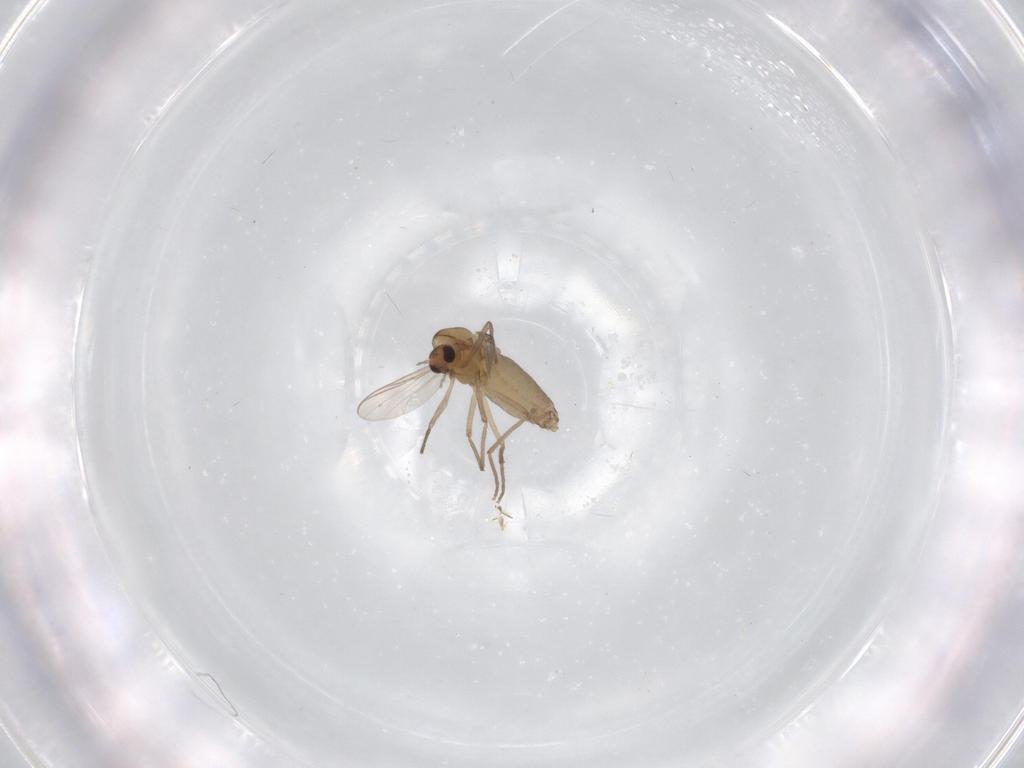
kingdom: Animalia
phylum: Arthropoda
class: Insecta
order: Diptera
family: Chironomidae
